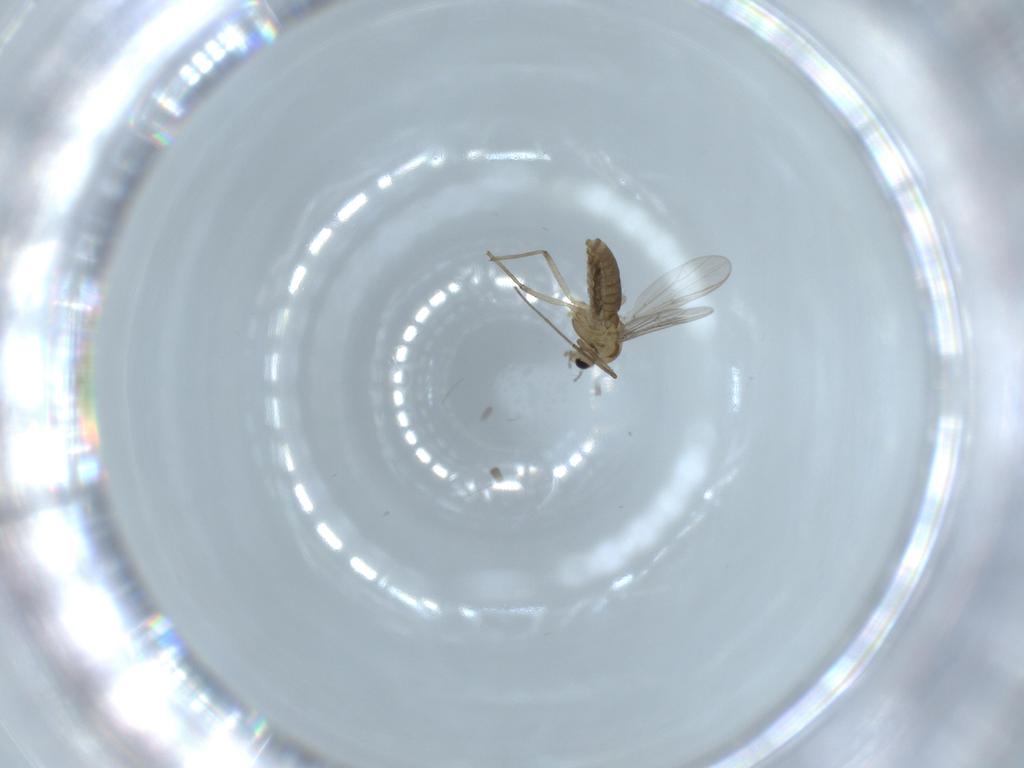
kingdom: Animalia
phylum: Arthropoda
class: Insecta
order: Diptera
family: Chironomidae
